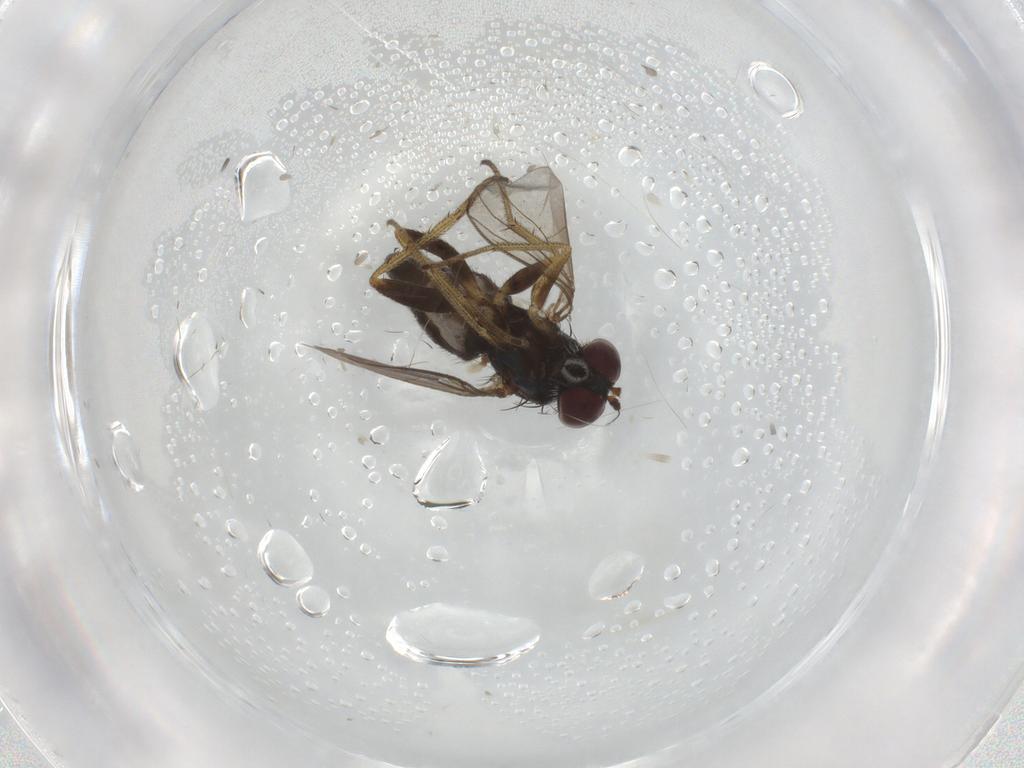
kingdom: Animalia
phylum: Arthropoda
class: Insecta
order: Diptera
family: Chironomidae
